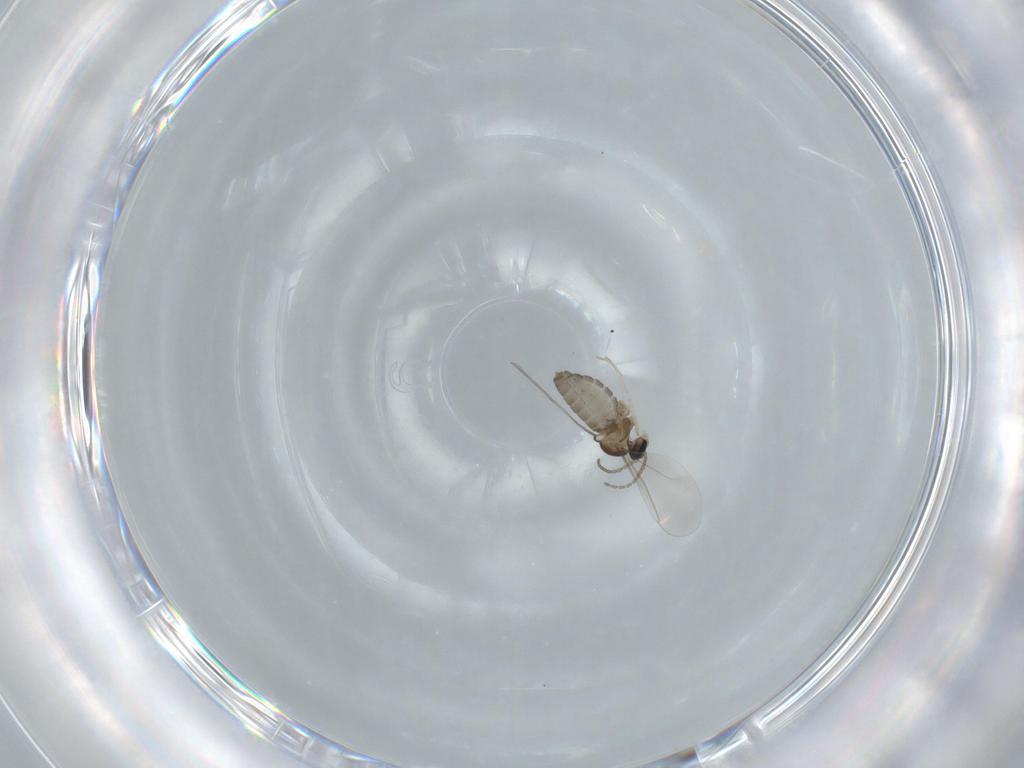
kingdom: Animalia
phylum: Arthropoda
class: Insecta
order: Diptera
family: Cecidomyiidae
